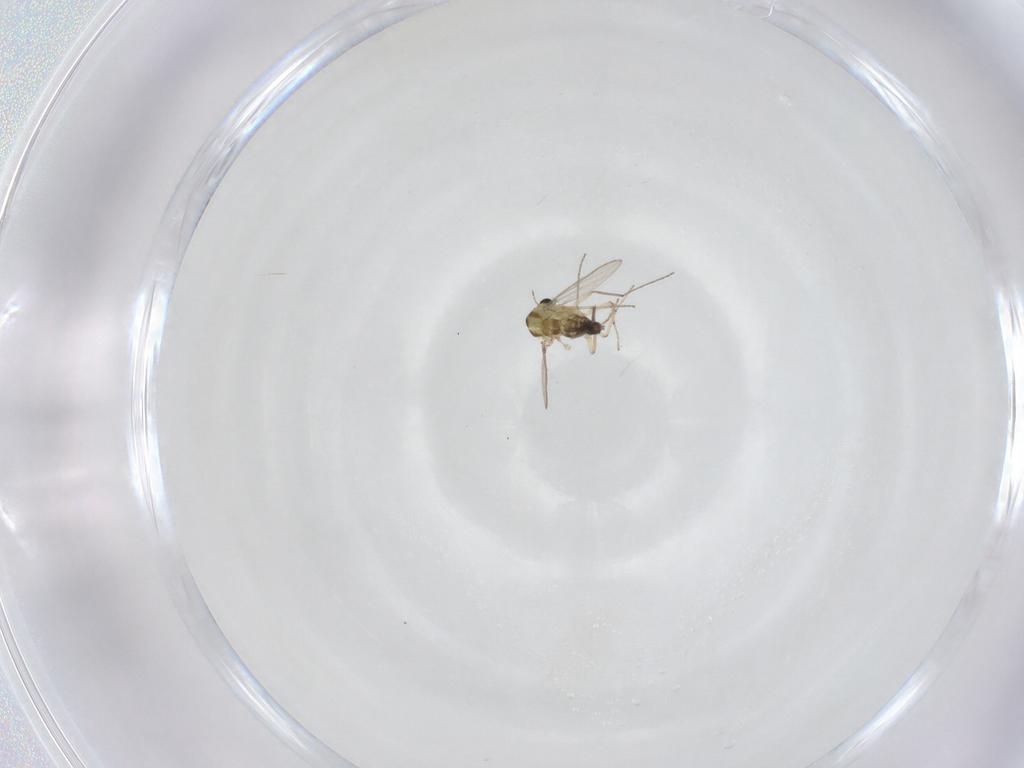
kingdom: Animalia
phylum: Arthropoda
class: Insecta
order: Diptera
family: Chironomidae
